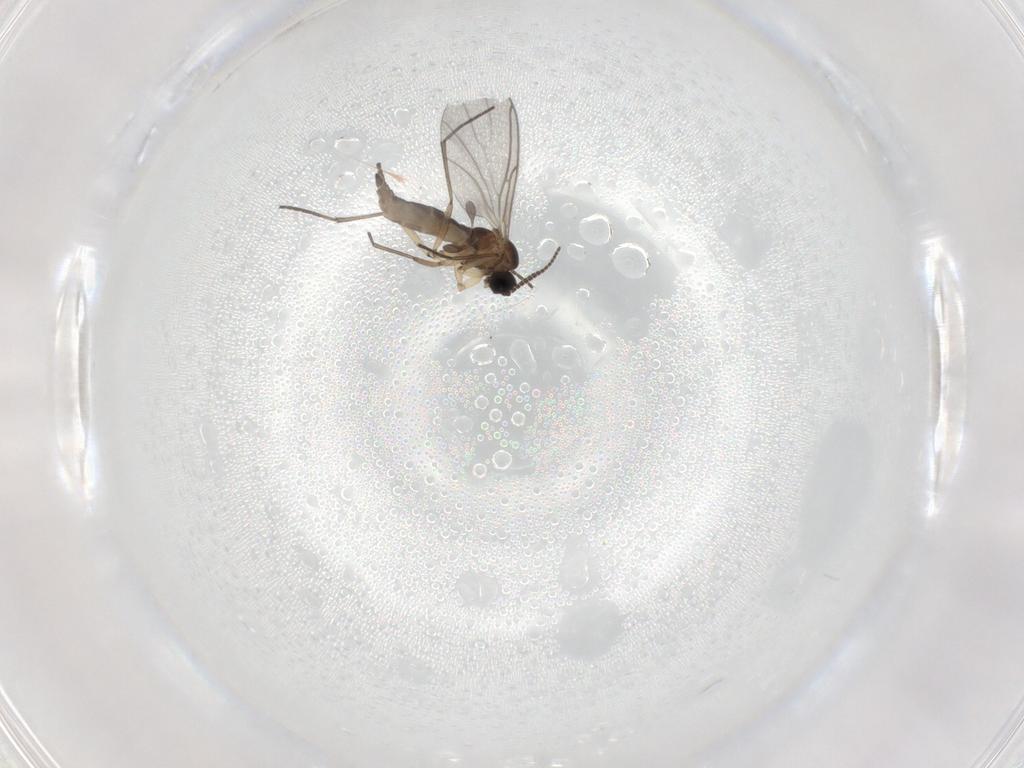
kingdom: Animalia
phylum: Arthropoda
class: Insecta
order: Diptera
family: Sciaridae
